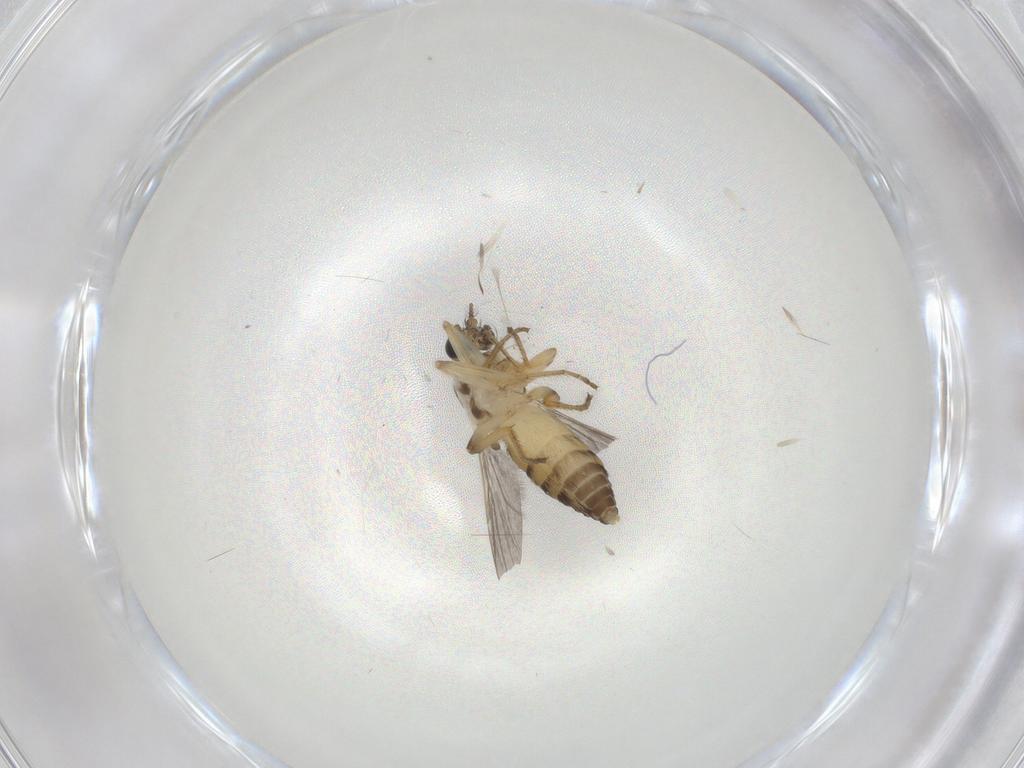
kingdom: Animalia
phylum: Arthropoda
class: Insecta
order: Diptera
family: Ceratopogonidae
